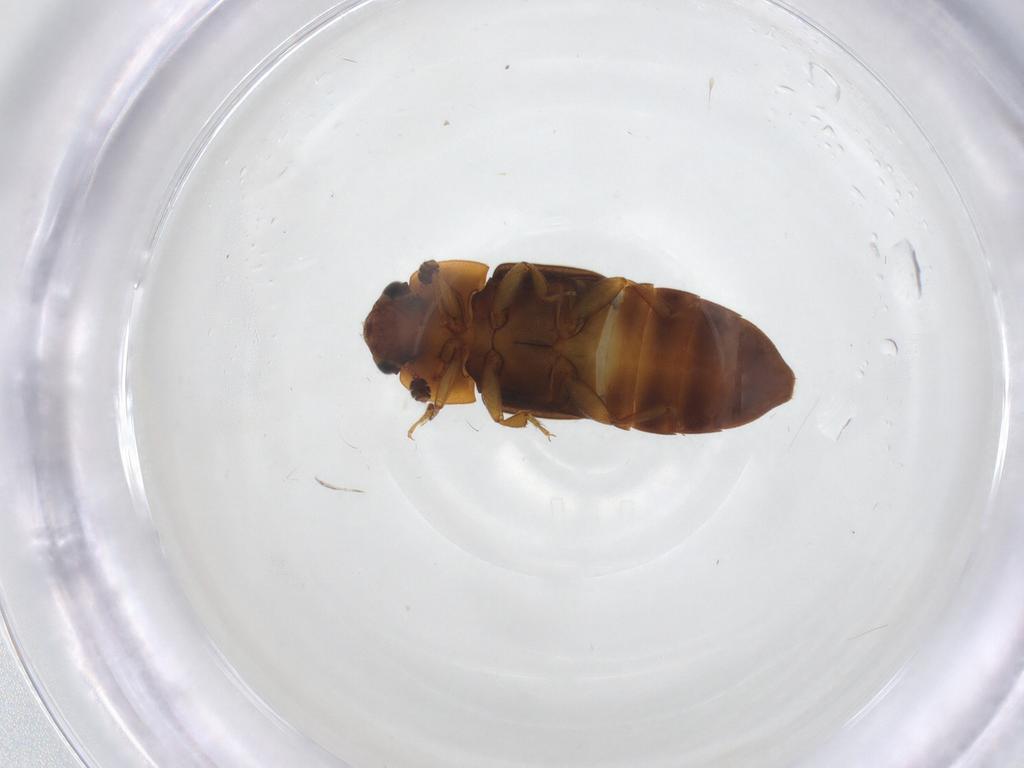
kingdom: Animalia
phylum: Arthropoda
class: Insecta
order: Coleoptera
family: Nitidulidae
